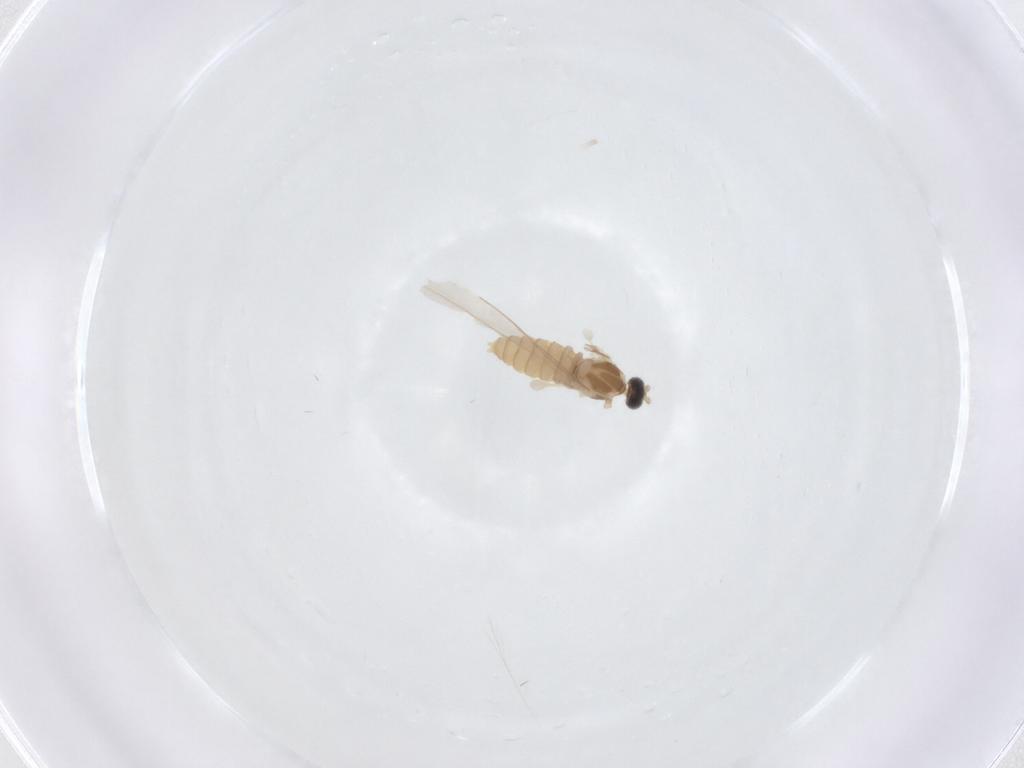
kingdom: Animalia
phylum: Arthropoda
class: Insecta
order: Diptera
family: Cecidomyiidae
